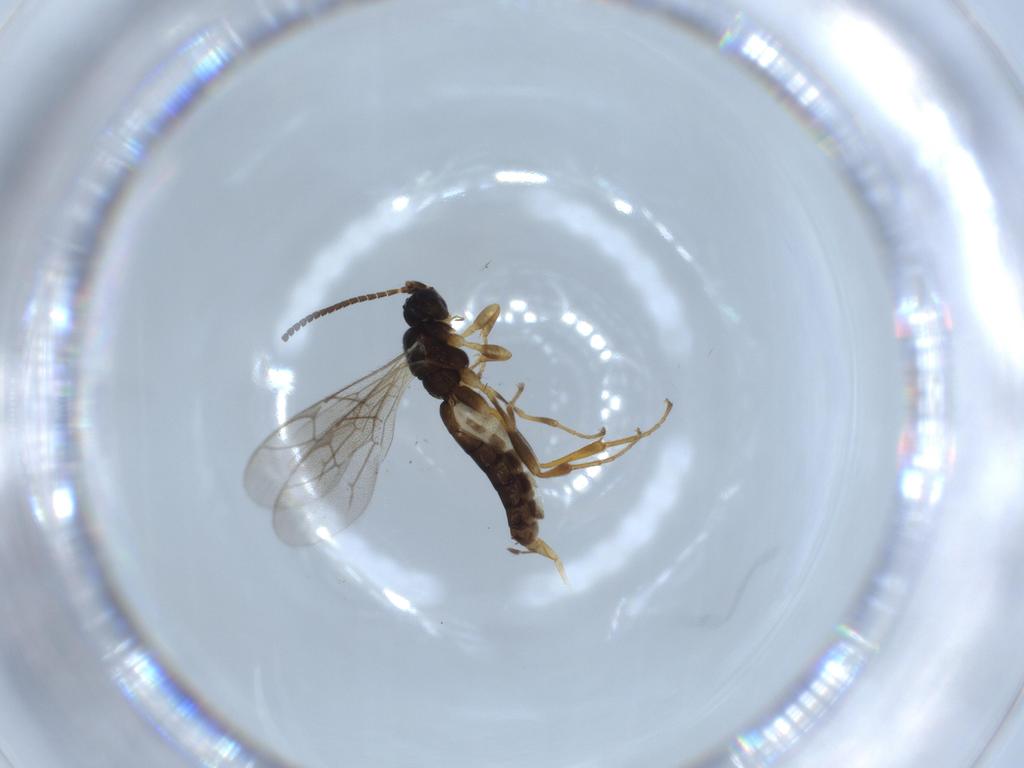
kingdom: Animalia
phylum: Arthropoda
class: Insecta
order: Hymenoptera
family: Ichneumonidae
